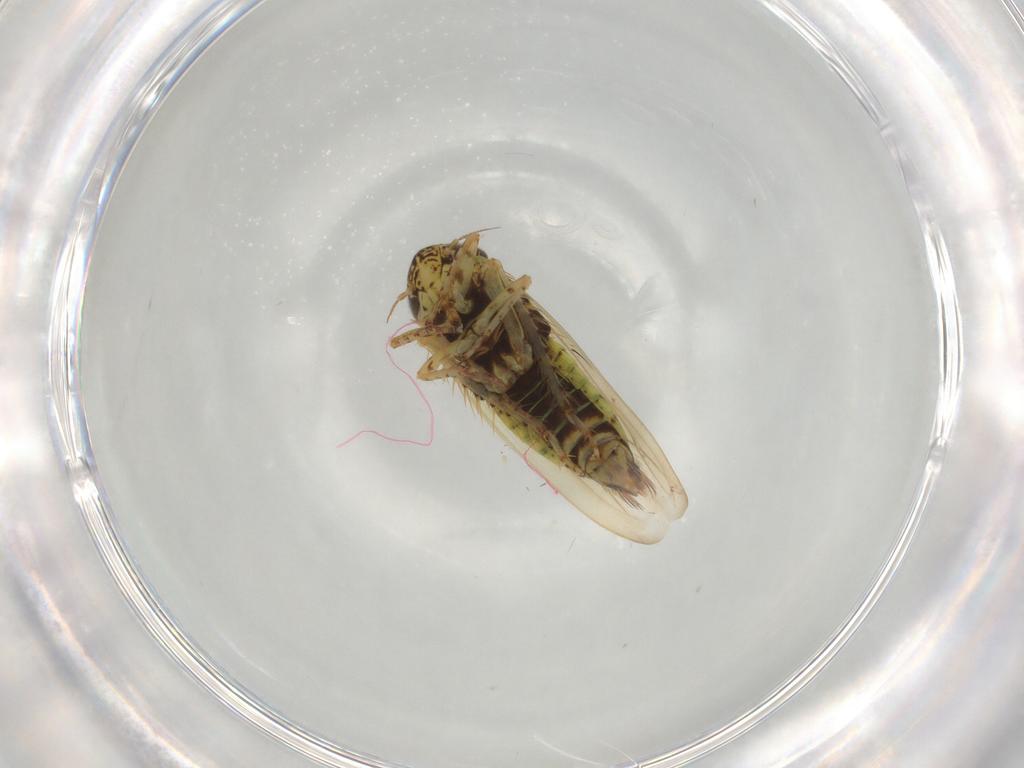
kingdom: Animalia
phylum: Arthropoda
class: Insecta
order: Hemiptera
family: Cicadellidae
